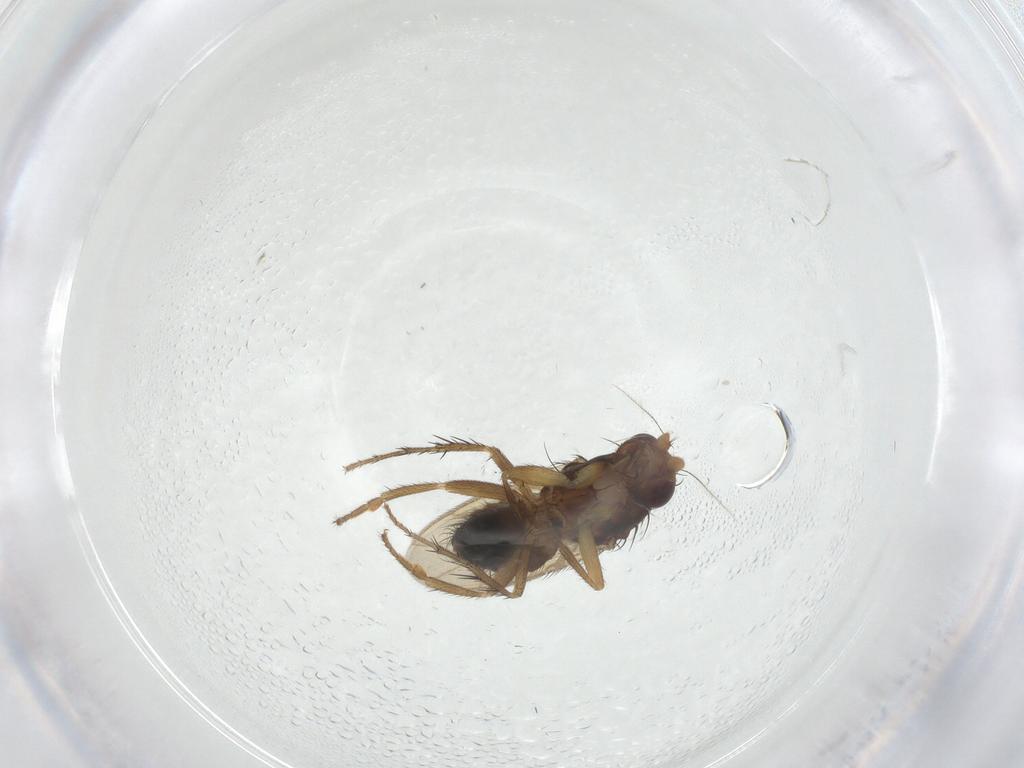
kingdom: Animalia
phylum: Arthropoda
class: Insecta
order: Diptera
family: Sphaeroceridae
